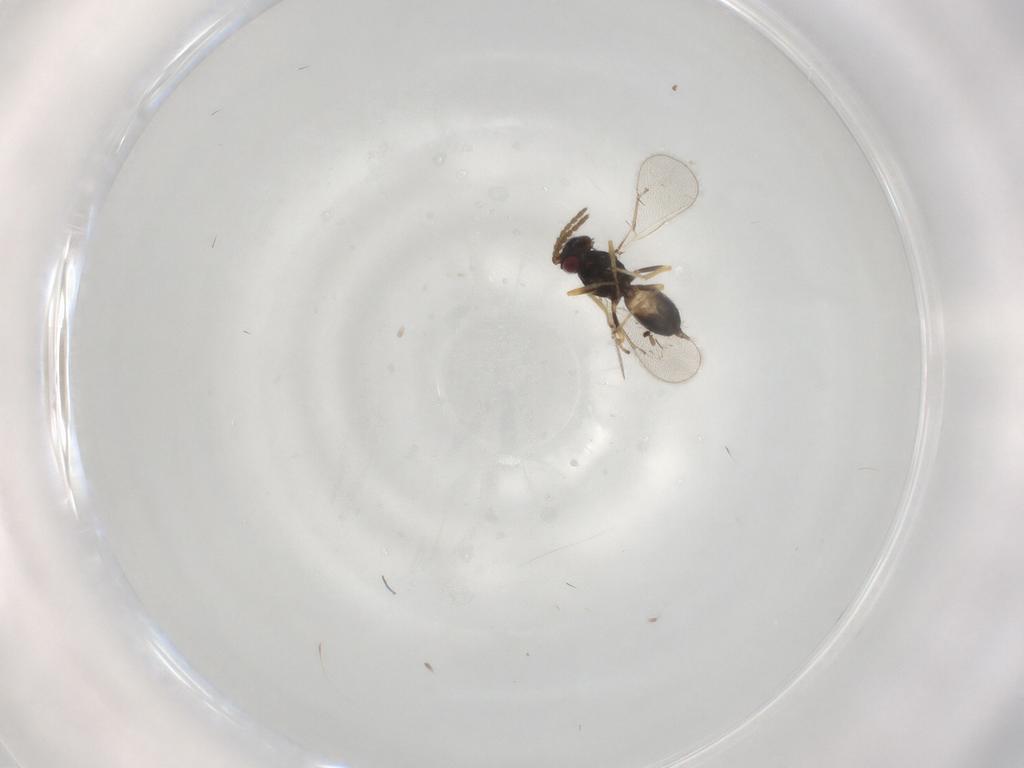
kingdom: Animalia
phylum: Arthropoda
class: Insecta
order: Hymenoptera
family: Eulophidae
